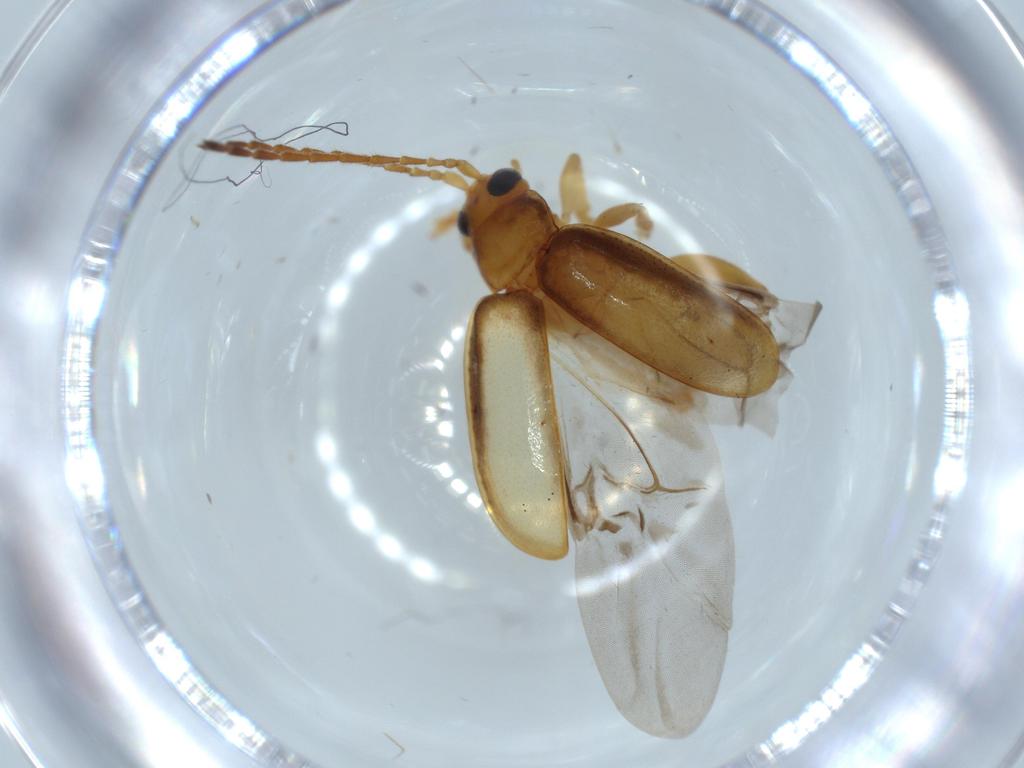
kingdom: Animalia
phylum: Arthropoda
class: Insecta
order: Coleoptera
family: Chrysomelidae
